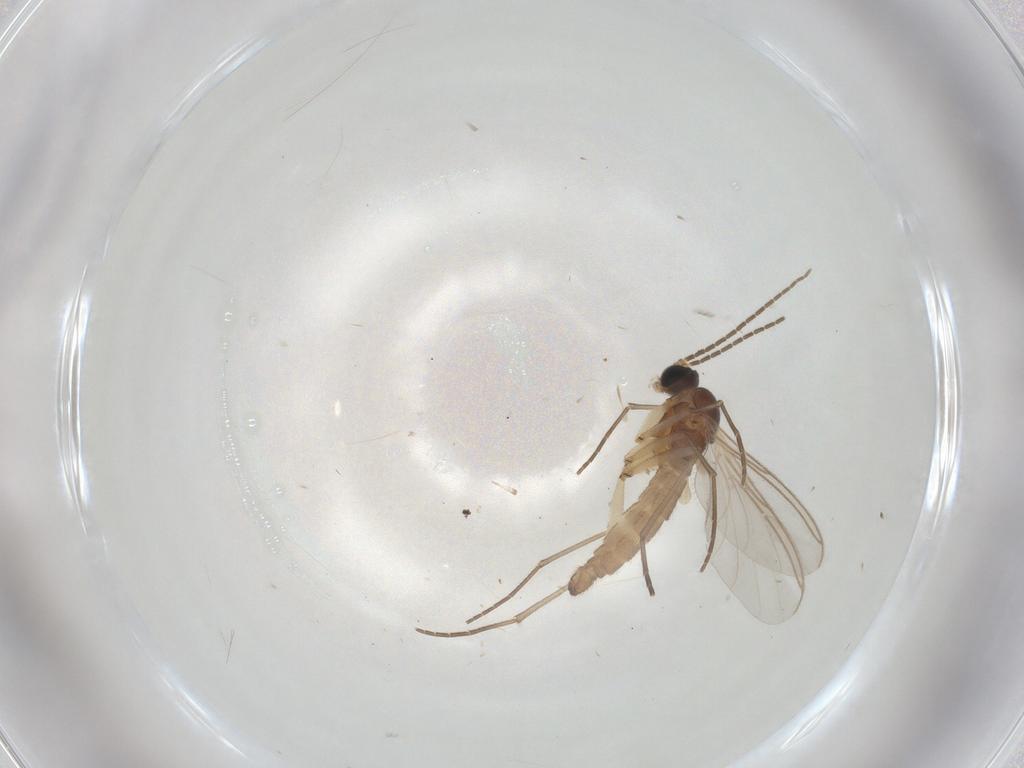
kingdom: Animalia
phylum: Arthropoda
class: Insecta
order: Diptera
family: Sciaridae
